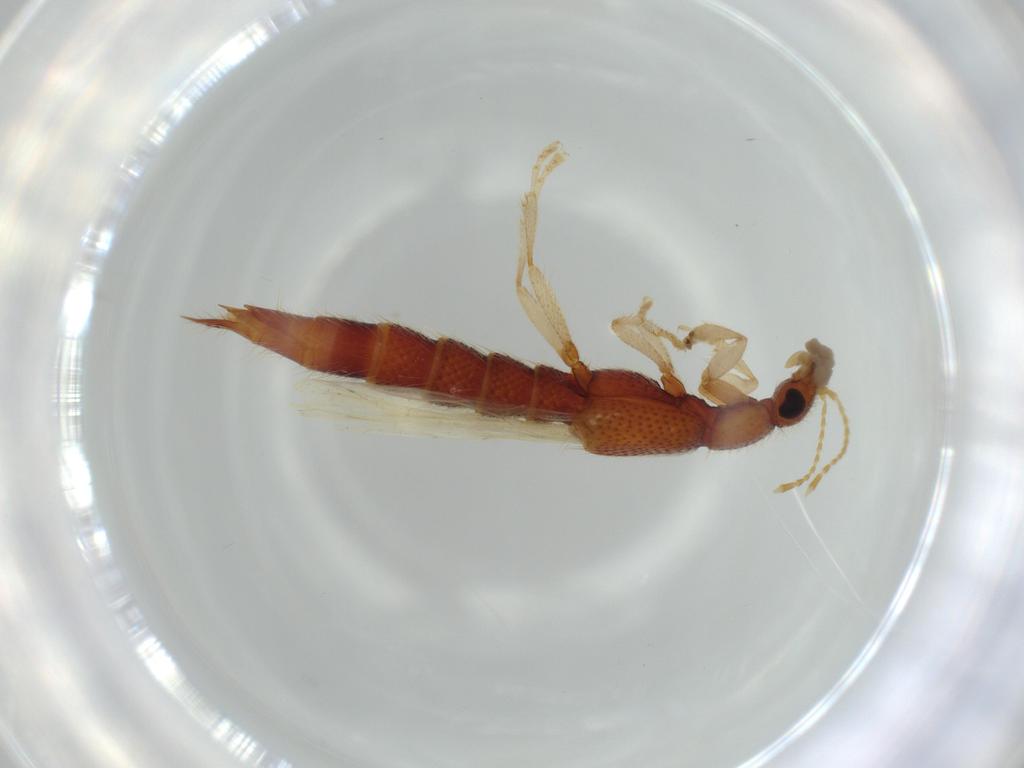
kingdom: Animalia
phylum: Arthropoda
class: Insecta
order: Coleoptera
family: Staphylinidae
